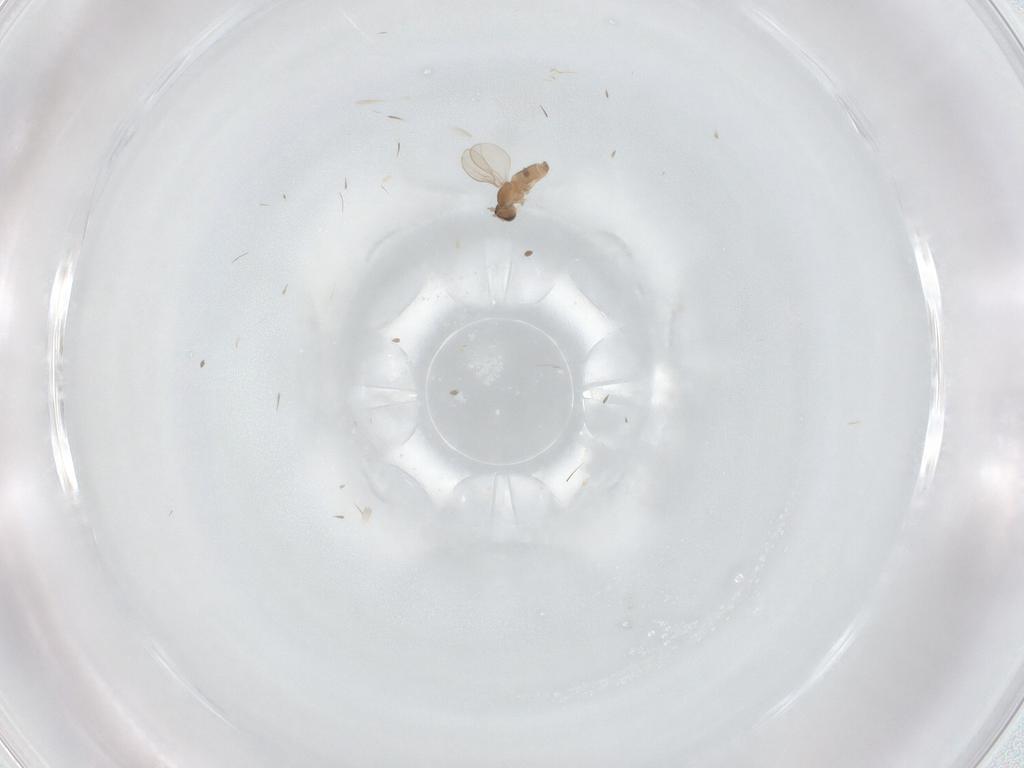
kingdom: Animalia
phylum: Arthropoda
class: Insecta
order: Diptera
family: Cecidomyiidae
